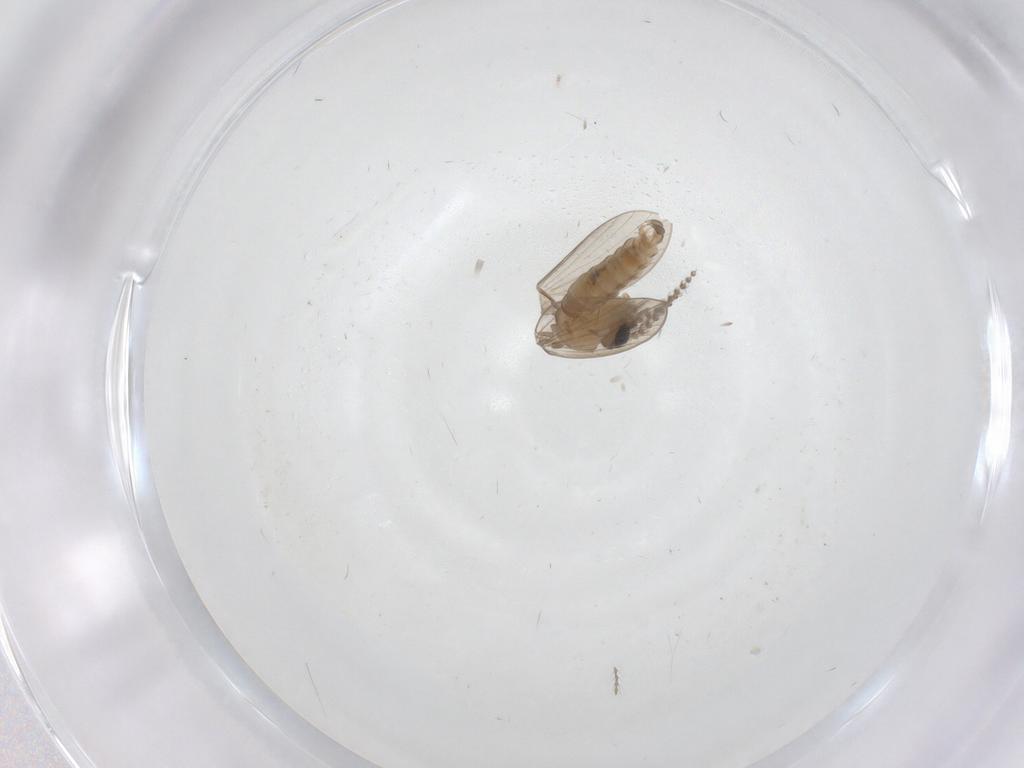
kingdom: Animalia
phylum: Arthropoda
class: Insecta
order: Diptera
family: Psychodidae
